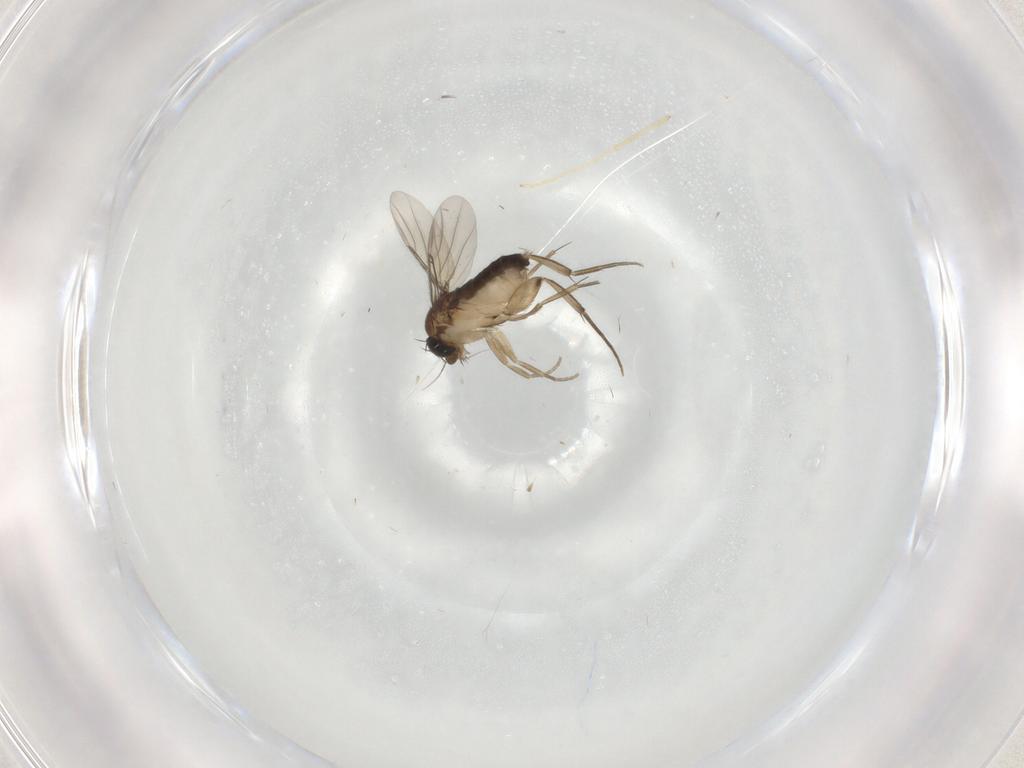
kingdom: Animalia
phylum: Arthropoda
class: Insecta
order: Diptera
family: Phoridae
